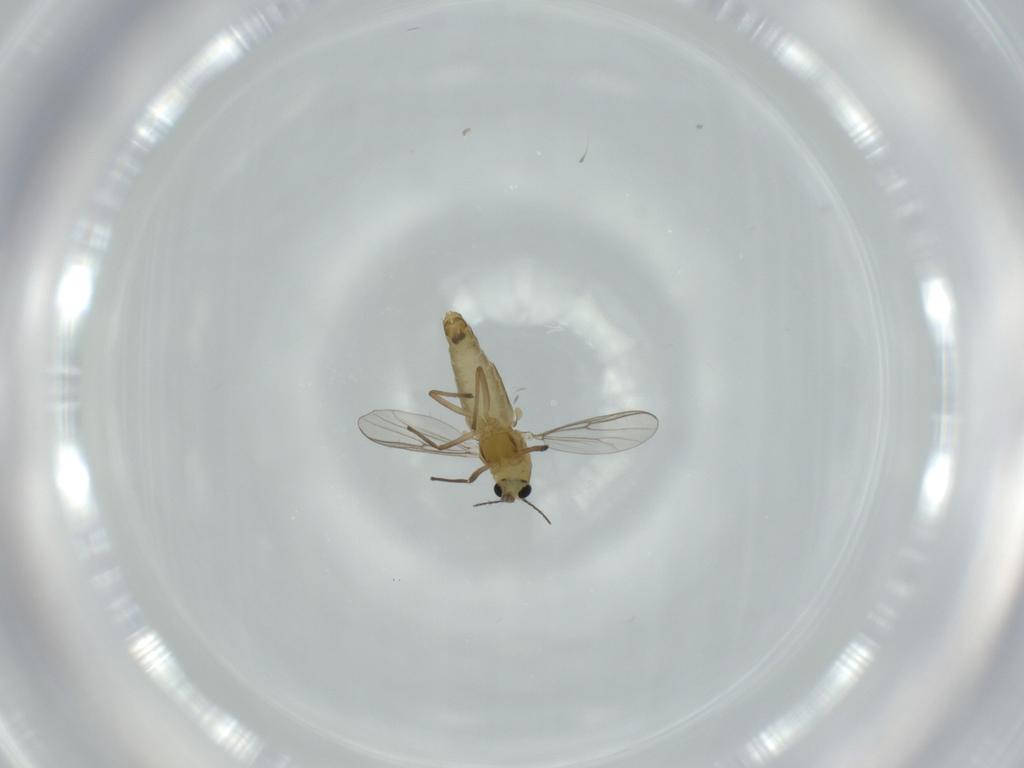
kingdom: Animalia
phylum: Arthropoda
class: Insecta
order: Diptera
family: Chironomidae
